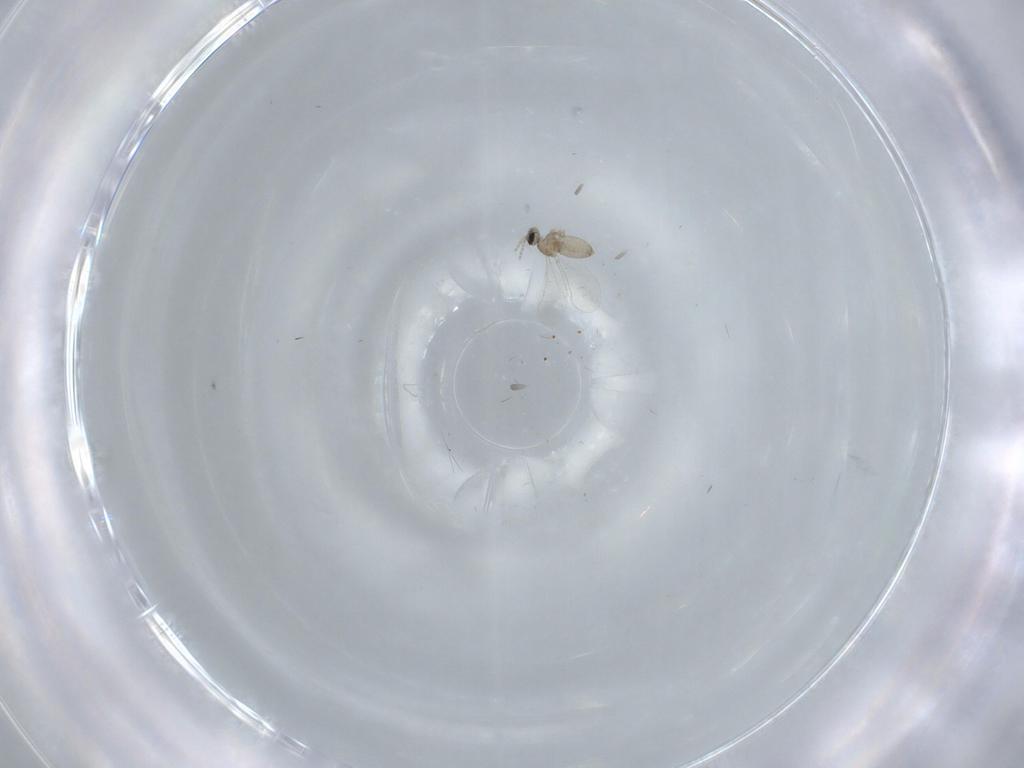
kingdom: Animalia
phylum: Arthropoda
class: Insecta
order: Diptera
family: Cecidomyiidae
